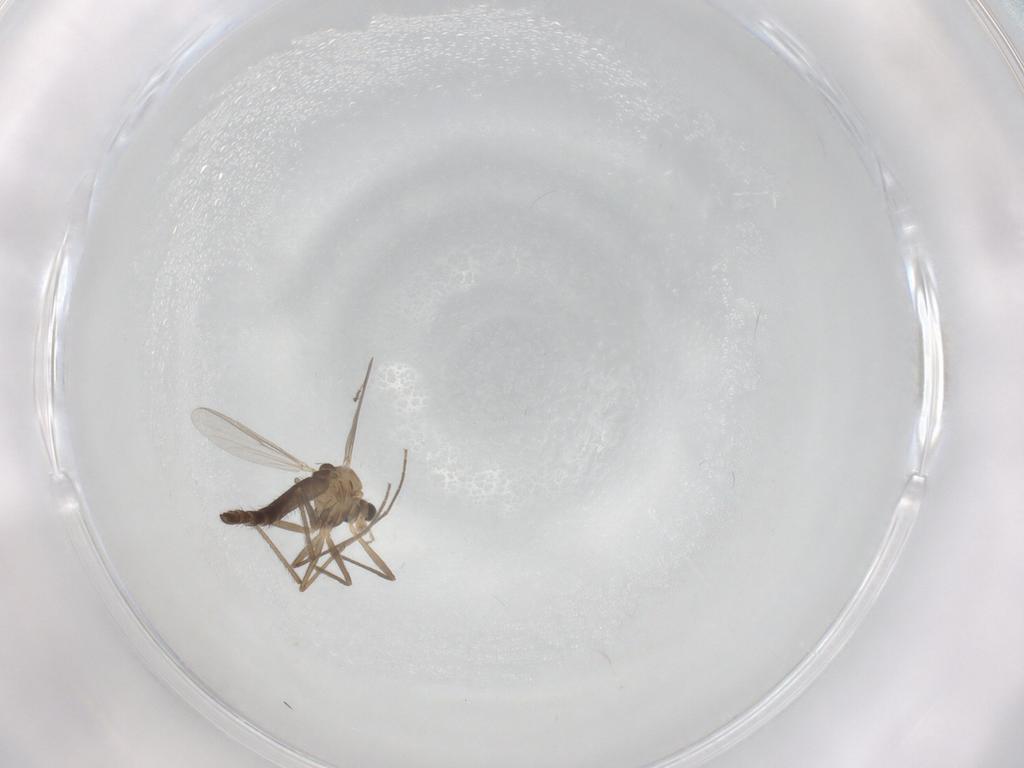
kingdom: Animalia
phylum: Arthropoda
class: Insecta
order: Diptera
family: Chironomidae
